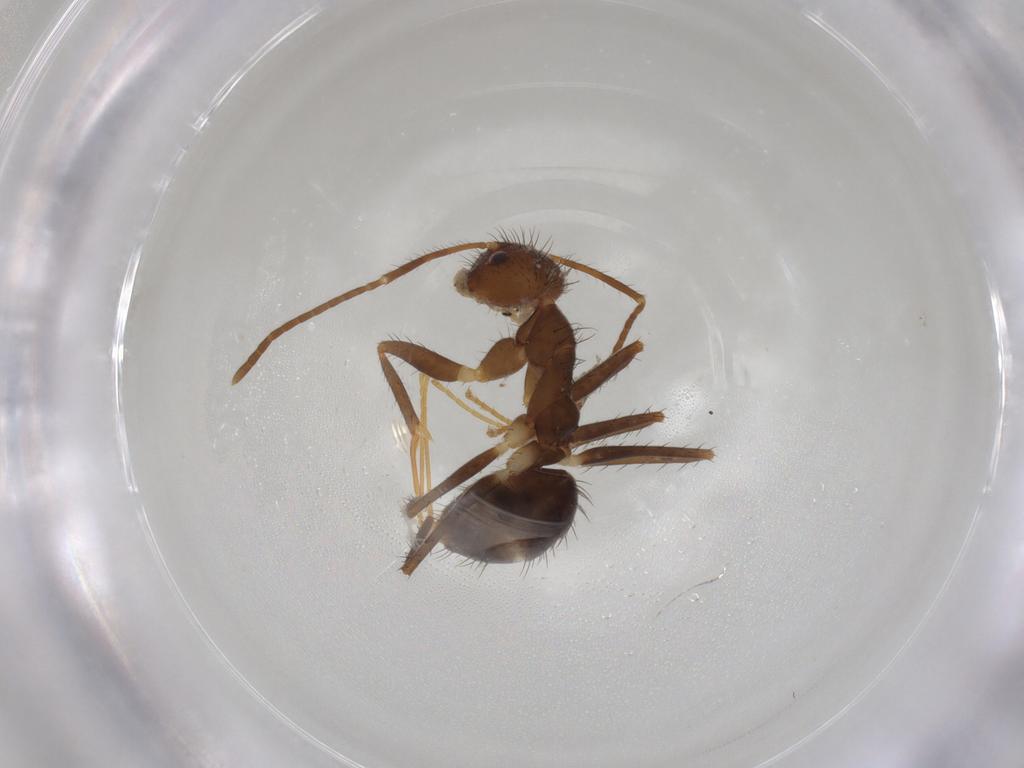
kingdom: Animalia
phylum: Arthropoda
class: Insecta
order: Hymenoptera
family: Formicidae
